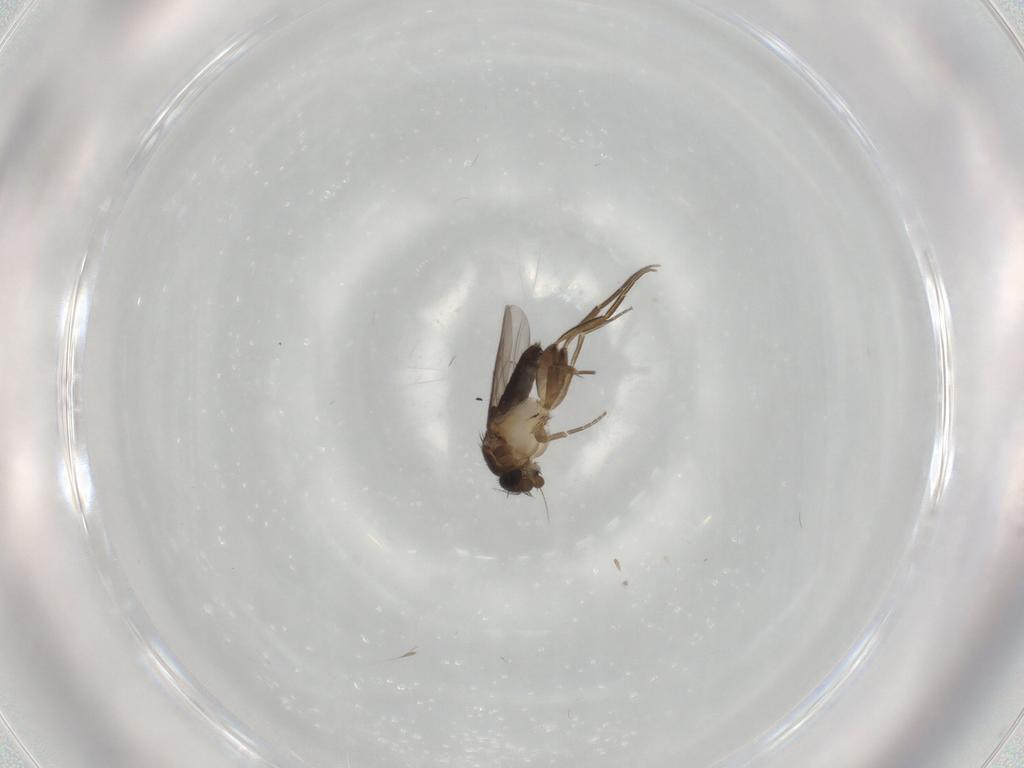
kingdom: Animalia
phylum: Arthropoda
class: Insecta
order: Diptera
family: Phoridae
